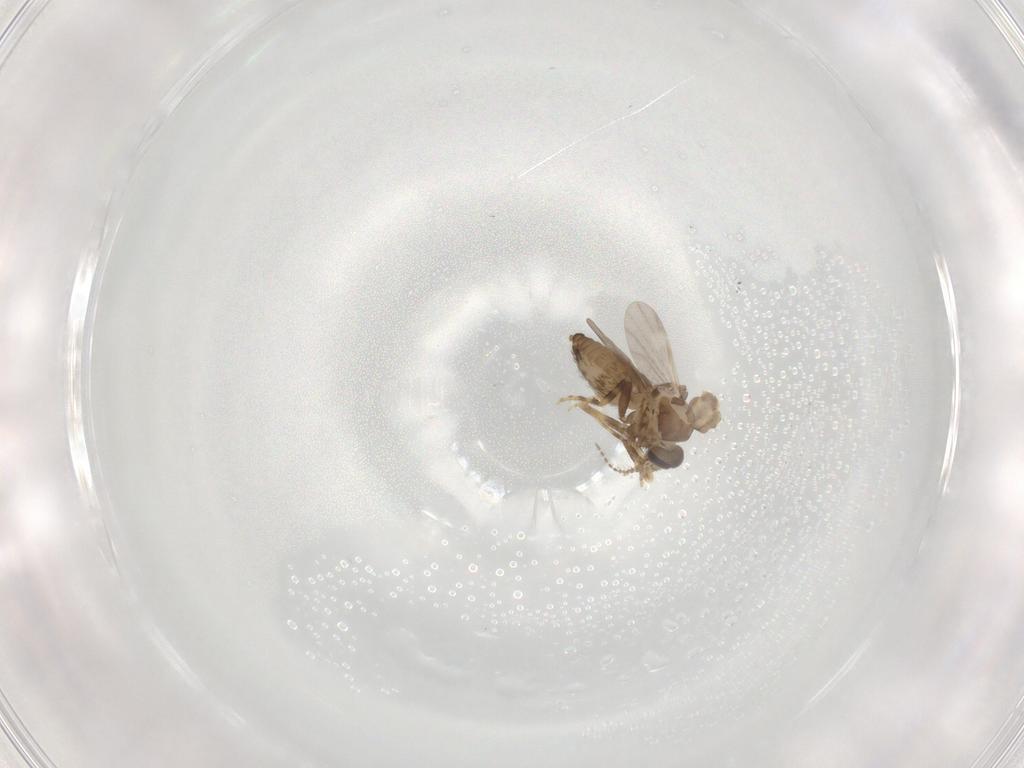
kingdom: Animalia
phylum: Arthropoda
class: Insecta
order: Diptera
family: Ceratopogonidae
